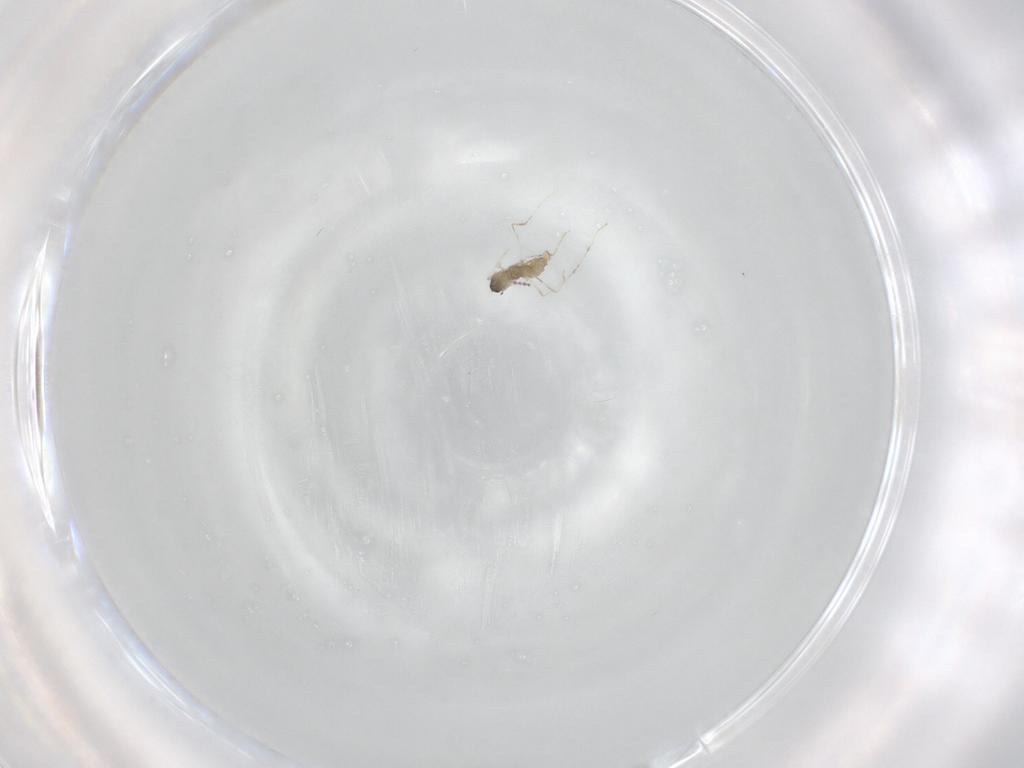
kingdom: Animalia
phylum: Arthropoda
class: Insecta
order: Diptera
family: Cecidomyiidae
